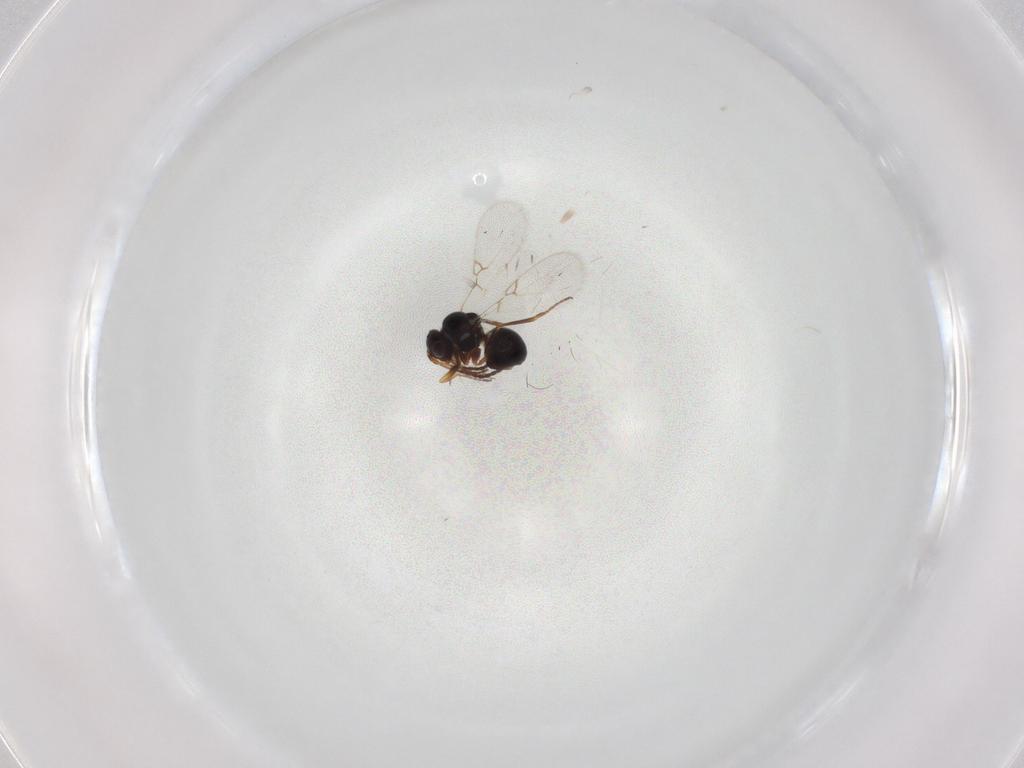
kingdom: Animalia
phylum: Arthropoda
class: Insecta
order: Hymenoptera
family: Figitidae
